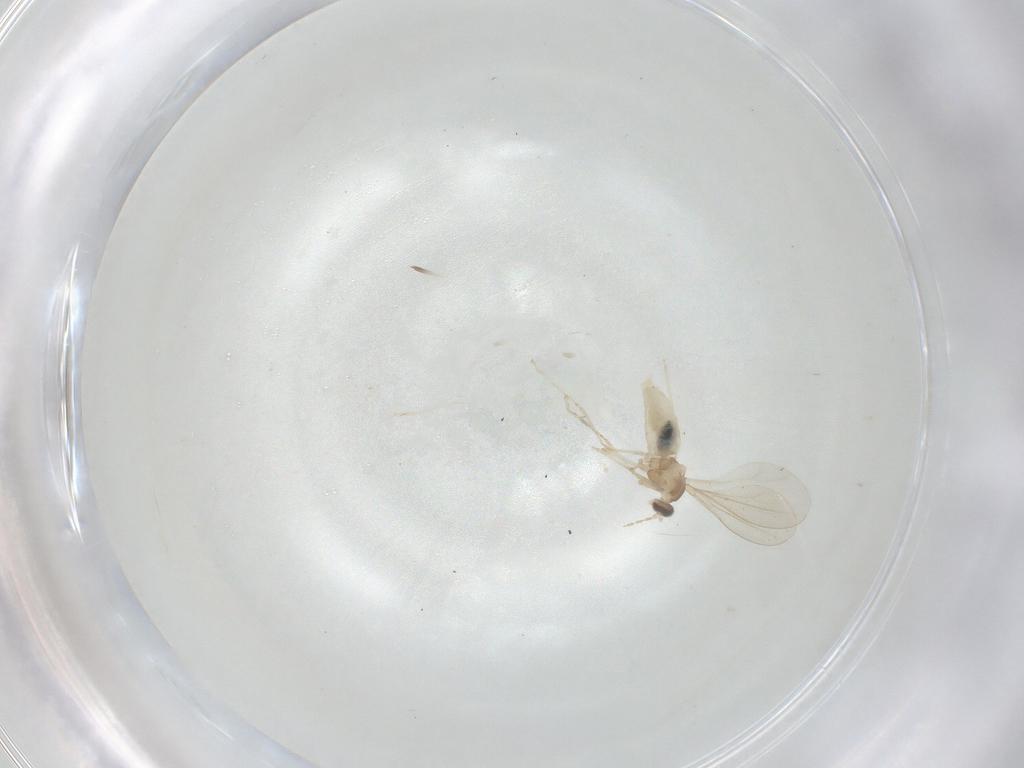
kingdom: Animalia
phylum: Arthropoda
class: Insecta
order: Diptera
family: Cecidomyiidae
